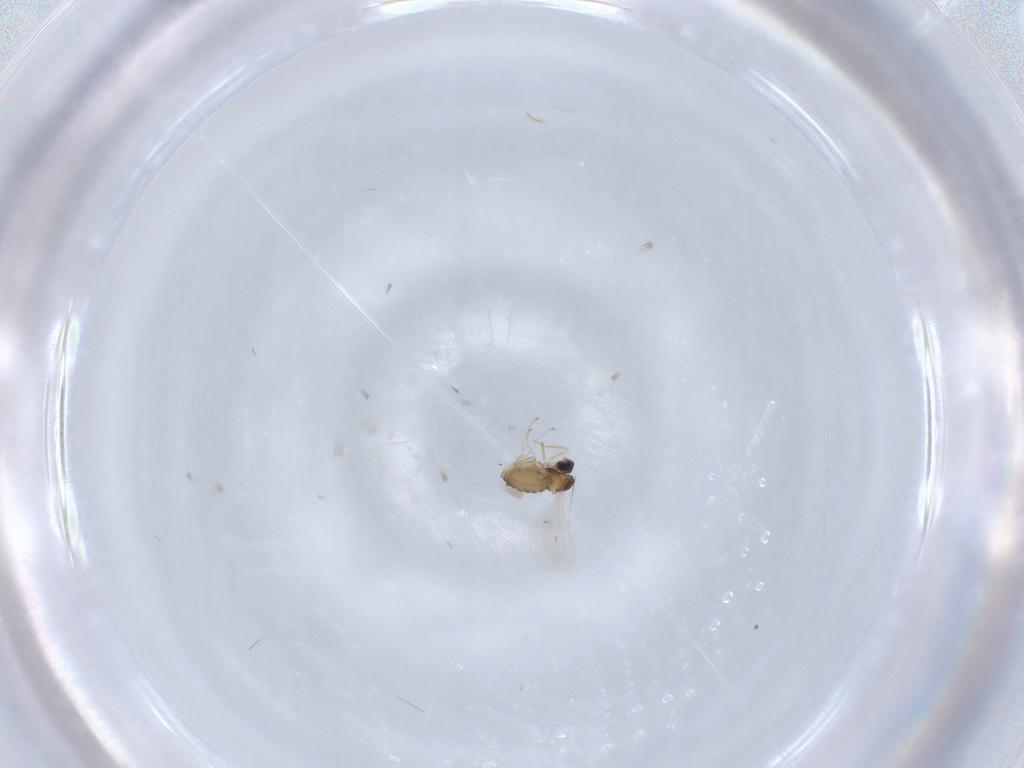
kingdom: Animalia
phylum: Arthropoda
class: Insecta
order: Diptera
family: Cecidomyiidae
